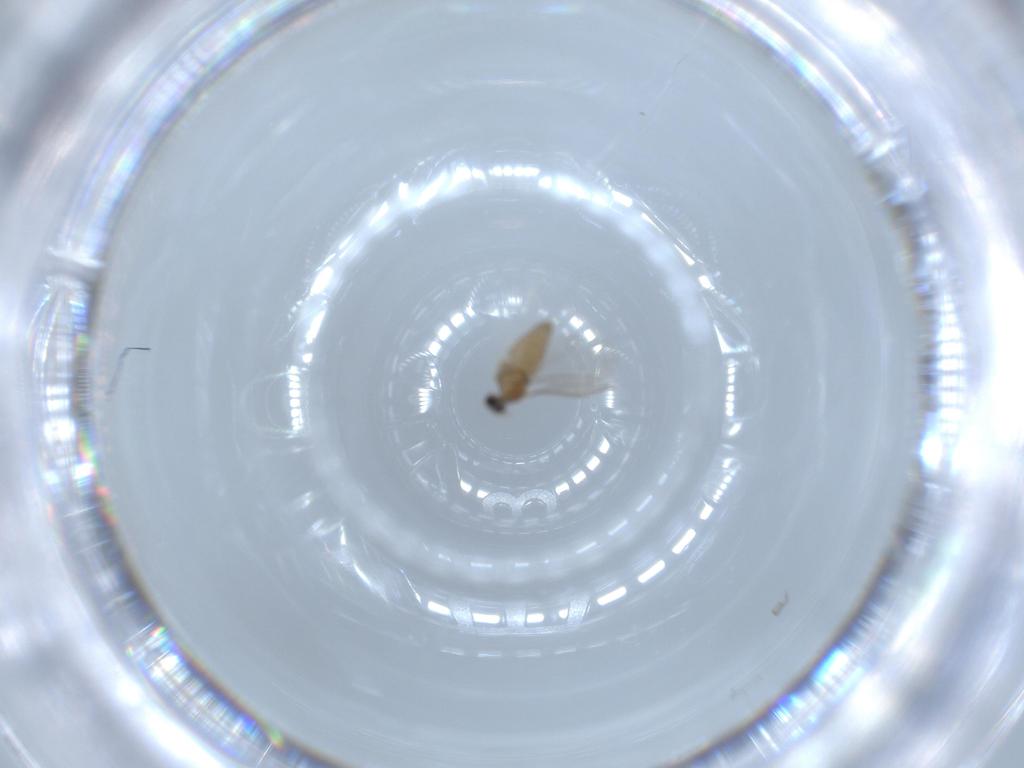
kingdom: Animalia
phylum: Arthropoda
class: Insecta
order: Diptera
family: Cecidomyiidae
